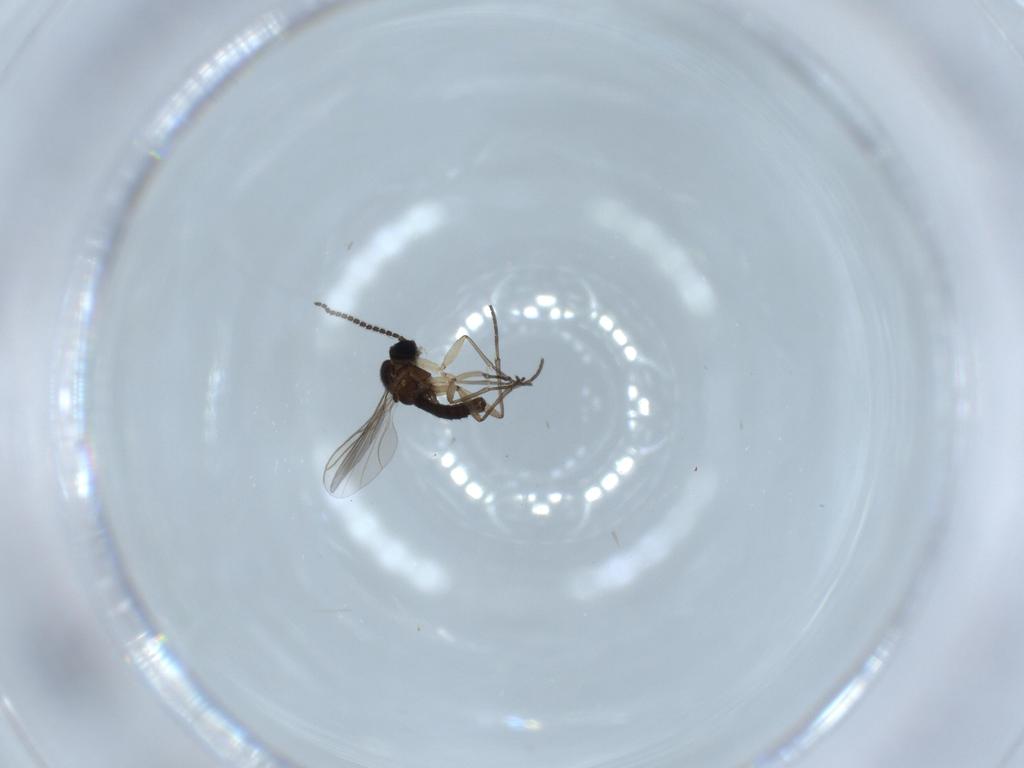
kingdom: Animalia
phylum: Arthropoda
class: Insecta
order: Diptera
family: Sciaridae
